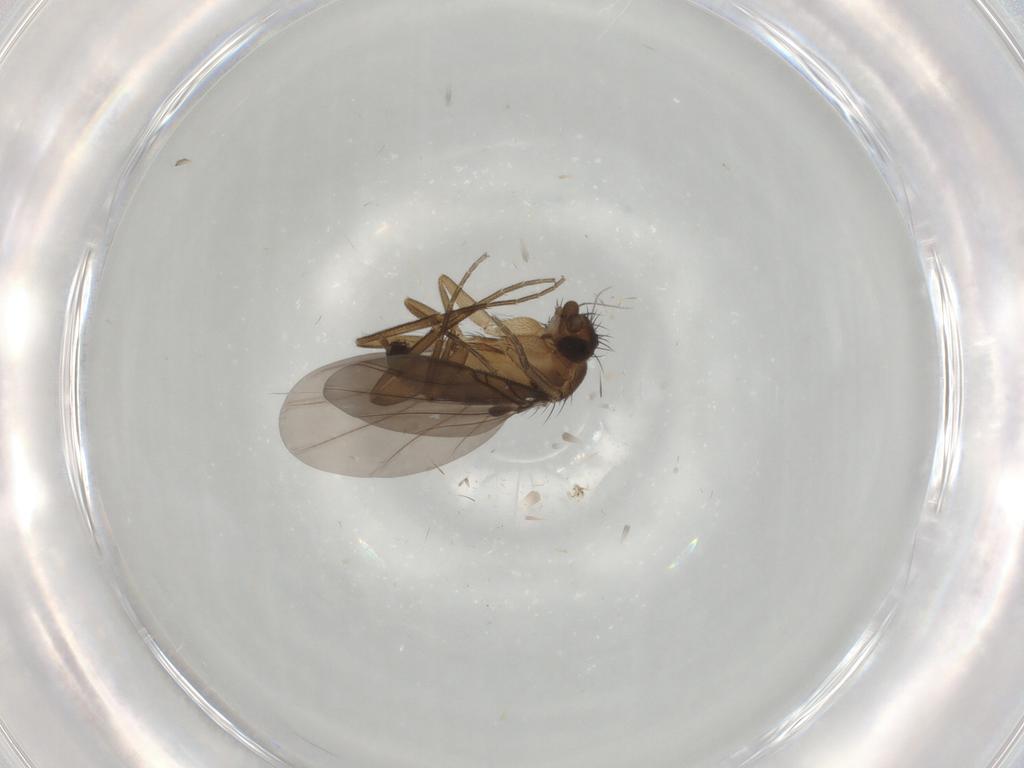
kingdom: Animalia
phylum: Arthropoda
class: Insecta
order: Diptera
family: Phoridae
